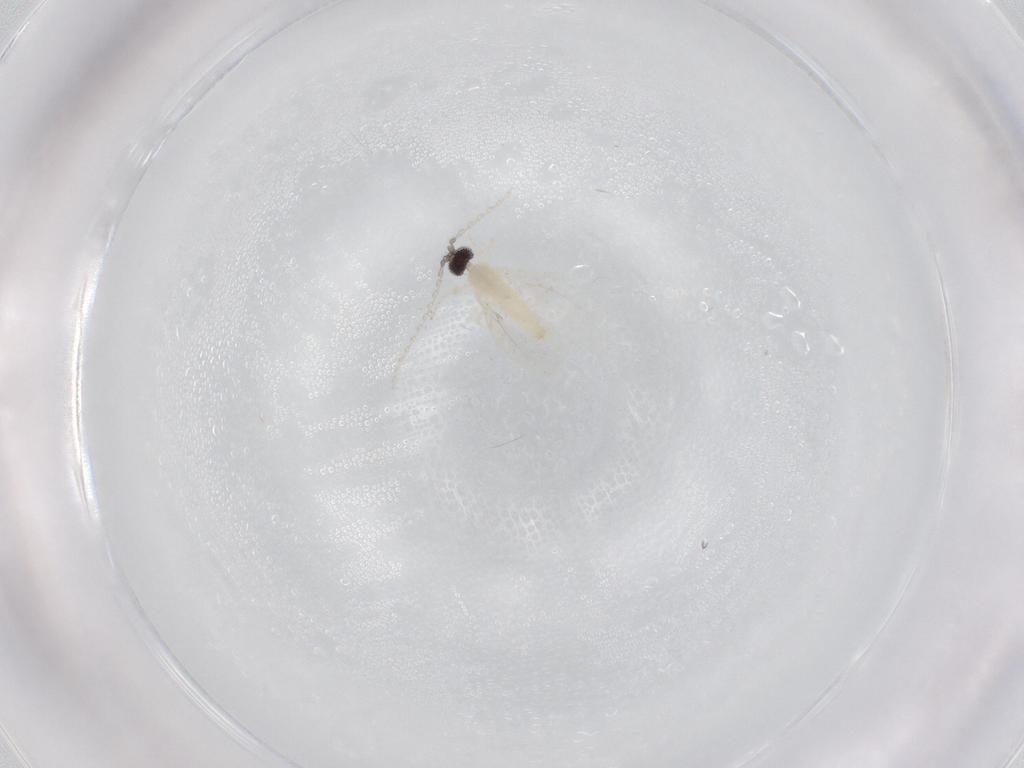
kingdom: Animalia
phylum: Arthropoda
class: Insecta
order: Diptera
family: Cecidomyiidae
